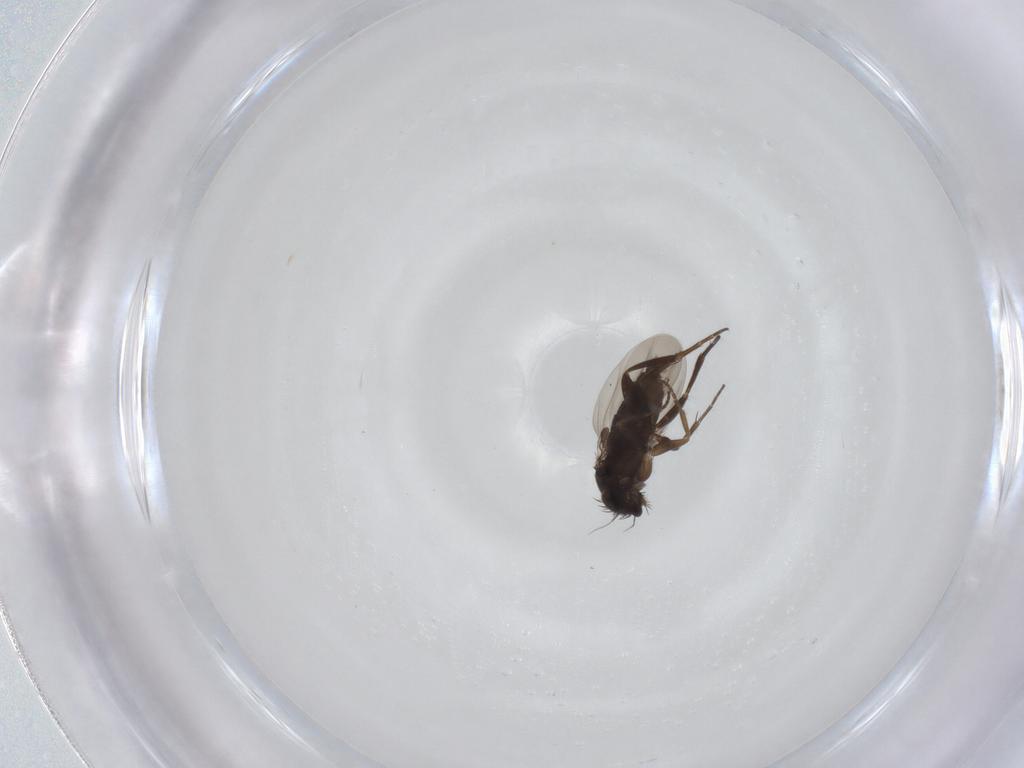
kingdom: Animalia
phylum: Arthropoda
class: Insecta
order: Diptera
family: Phoridae
